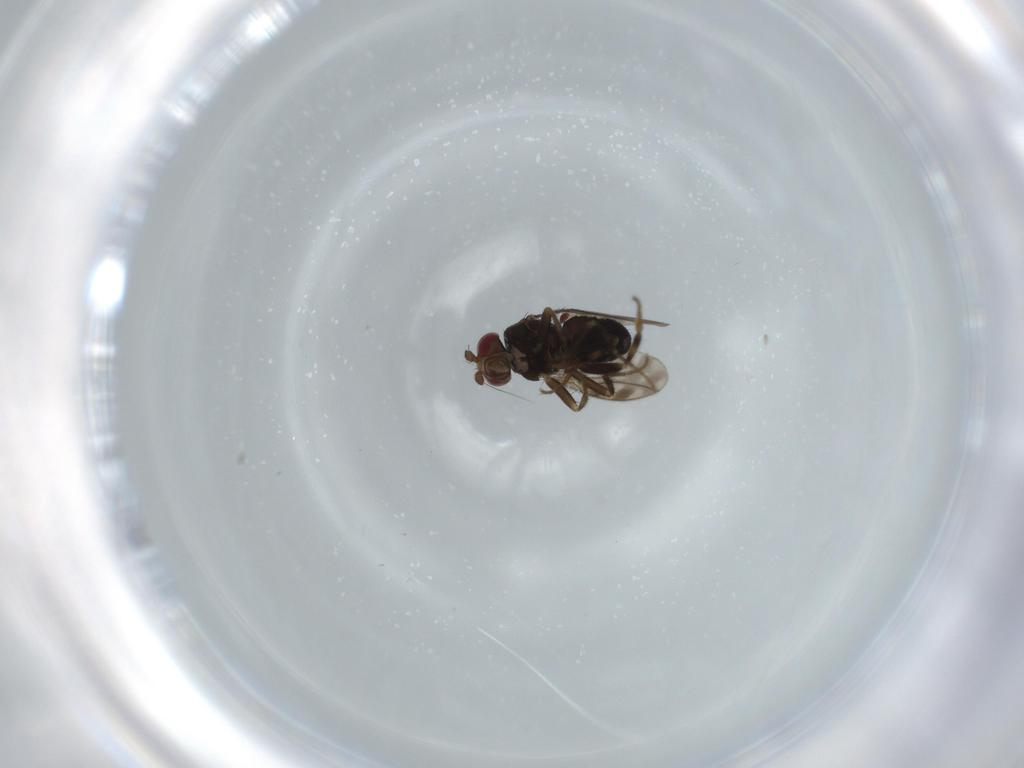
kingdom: Animalia
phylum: Arthropoda
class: Insecta
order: Diptera
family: Sphaeroceridae
